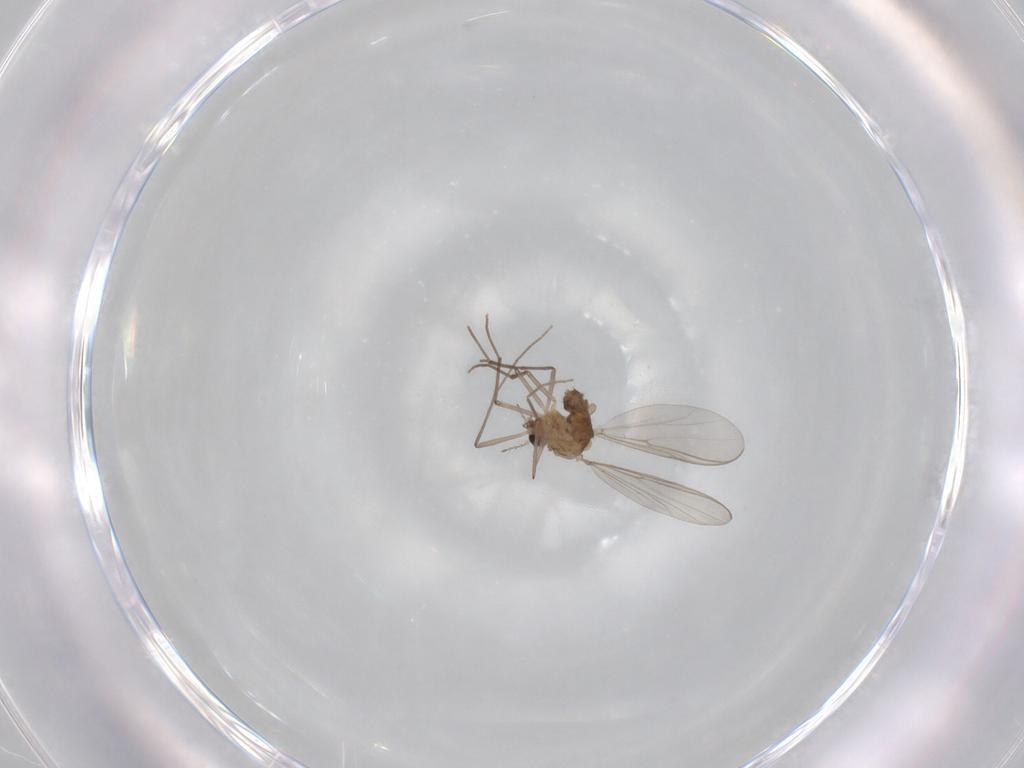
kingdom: Animalia
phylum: Arthropoda
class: Insecta
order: Diptera
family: Chironomidae
